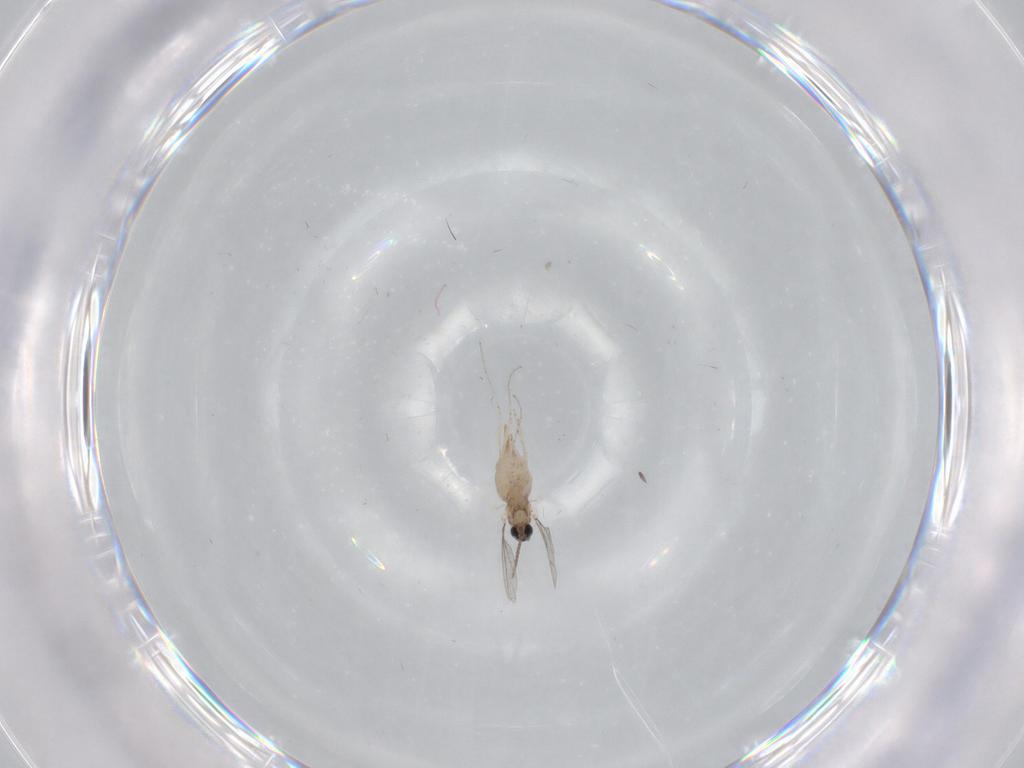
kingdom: Animalia
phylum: Arthropoda
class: Insecta
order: Diptera
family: Cecidomyiidae
